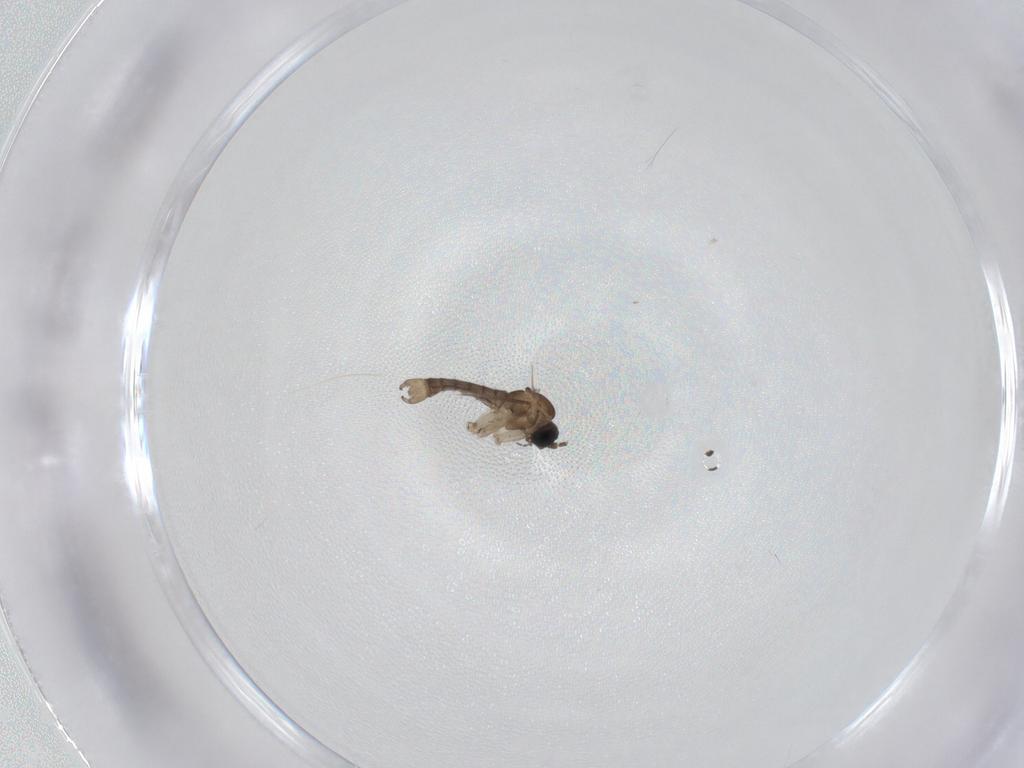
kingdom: Animalia
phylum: Arthropoda
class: Insecta
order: Diptera
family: Sciaridae
